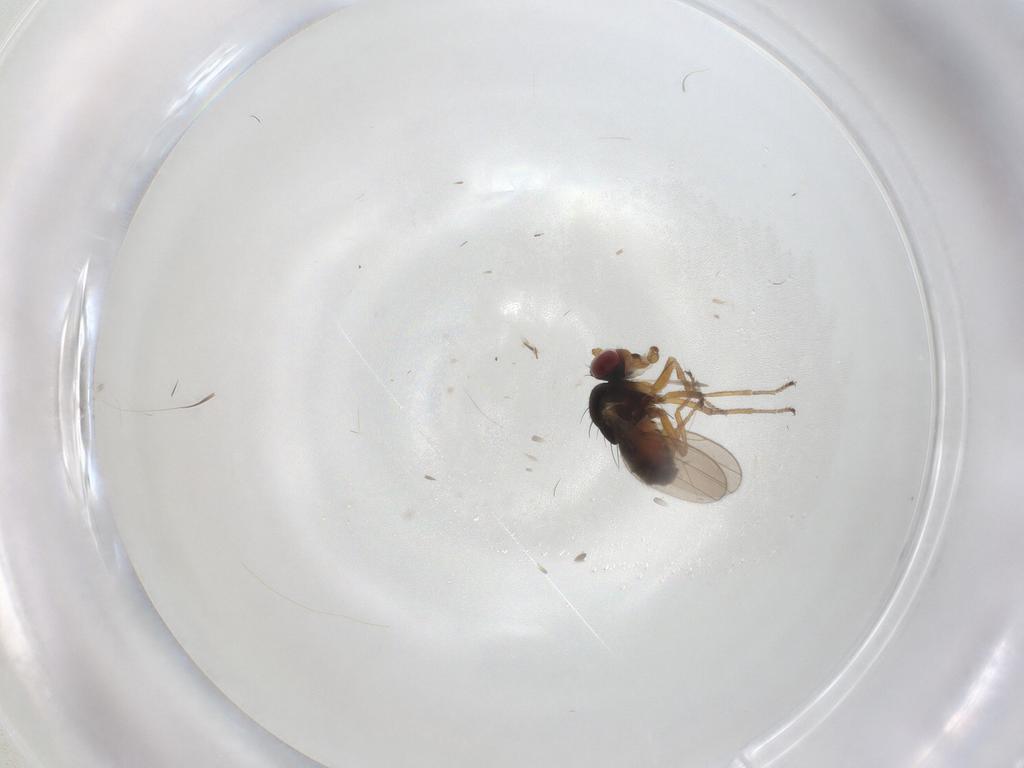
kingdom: Animalia
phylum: Arthropoda
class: Insecta
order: Diptera
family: Ephydridae
